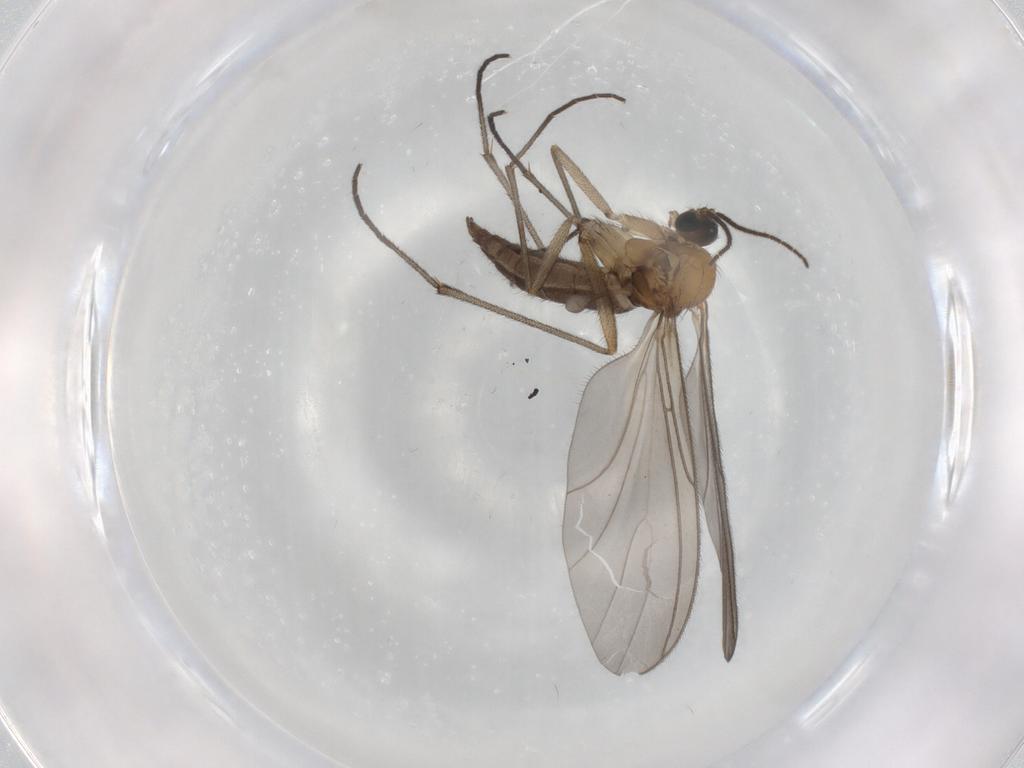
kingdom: Animalia
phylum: Arthropoda
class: Insecta
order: Diptera
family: Sciaridae
